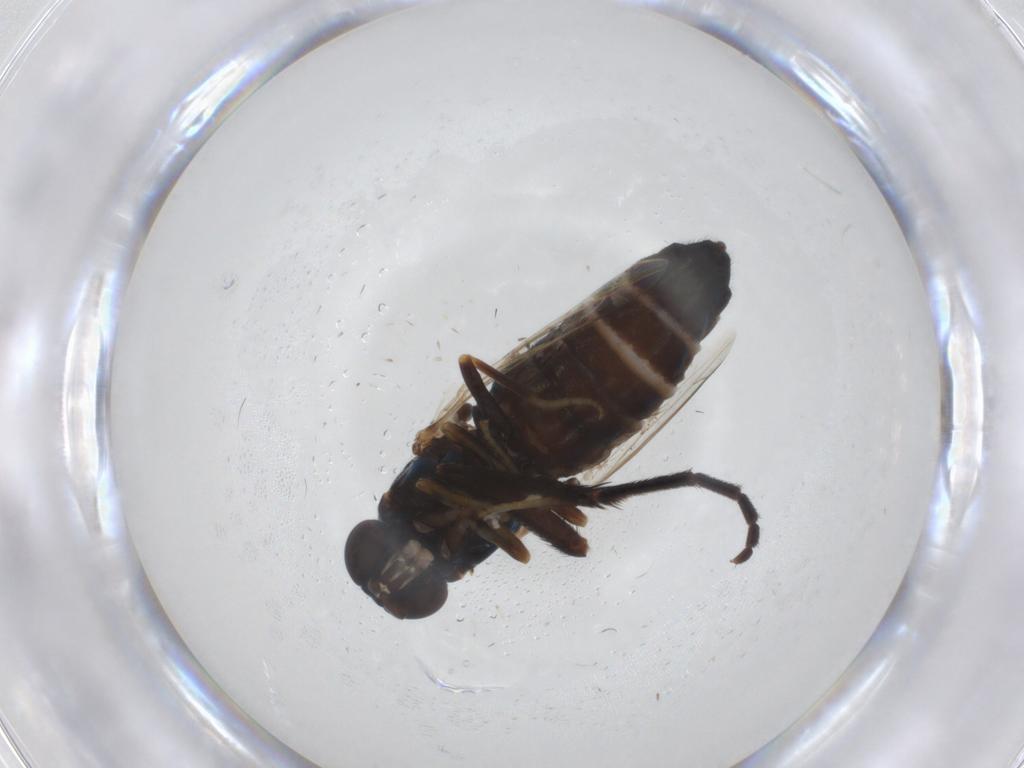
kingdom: Animalia
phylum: Arthropoda
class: Insecta
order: Diptera
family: Scenopinidae
